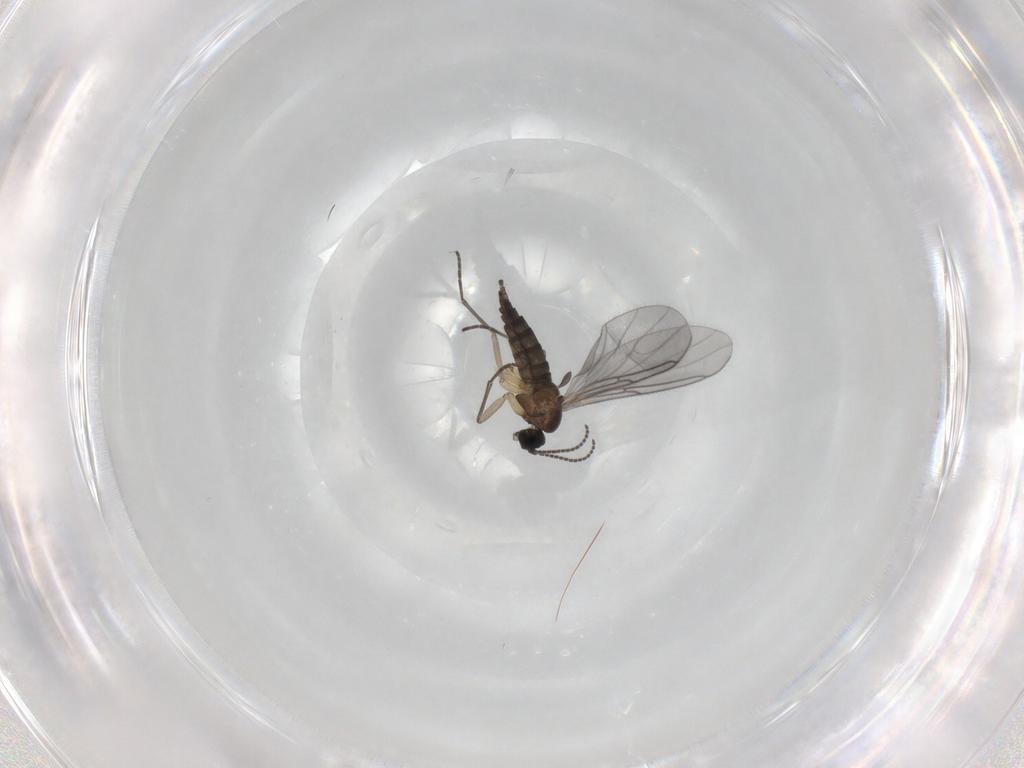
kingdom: Animalia
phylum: Arthropoda
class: Insecta
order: Diptera
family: Sciaridae
